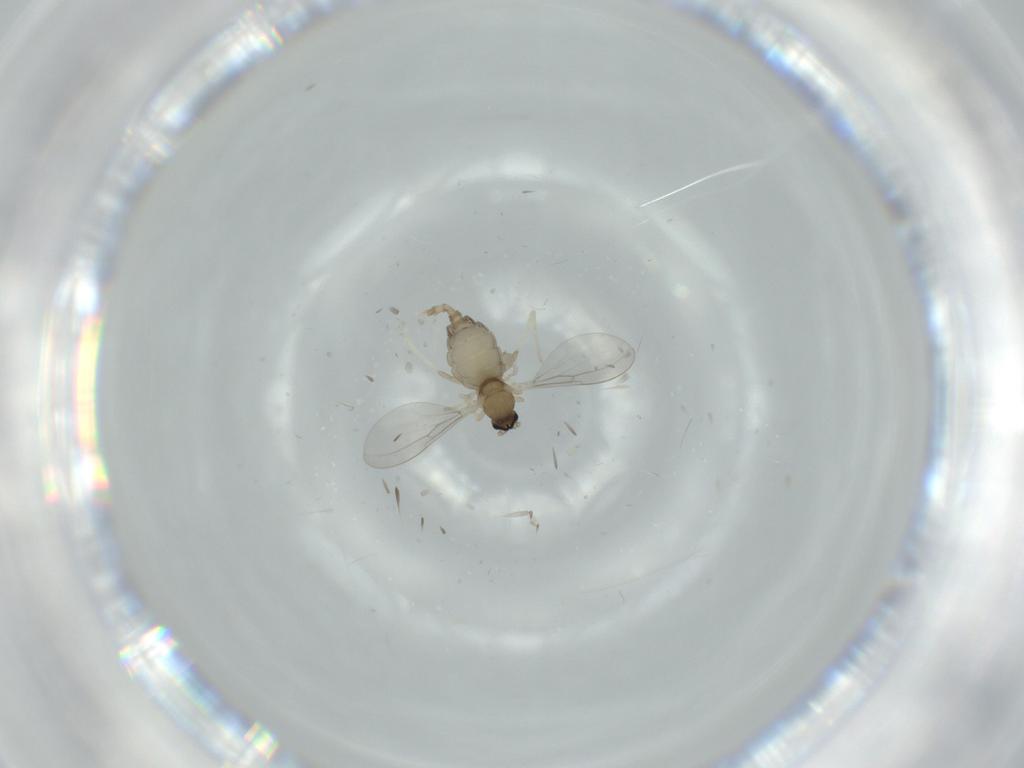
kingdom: Animalia
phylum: Arthropoda
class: Insecta
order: Diptera
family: Cecidomyiidae
